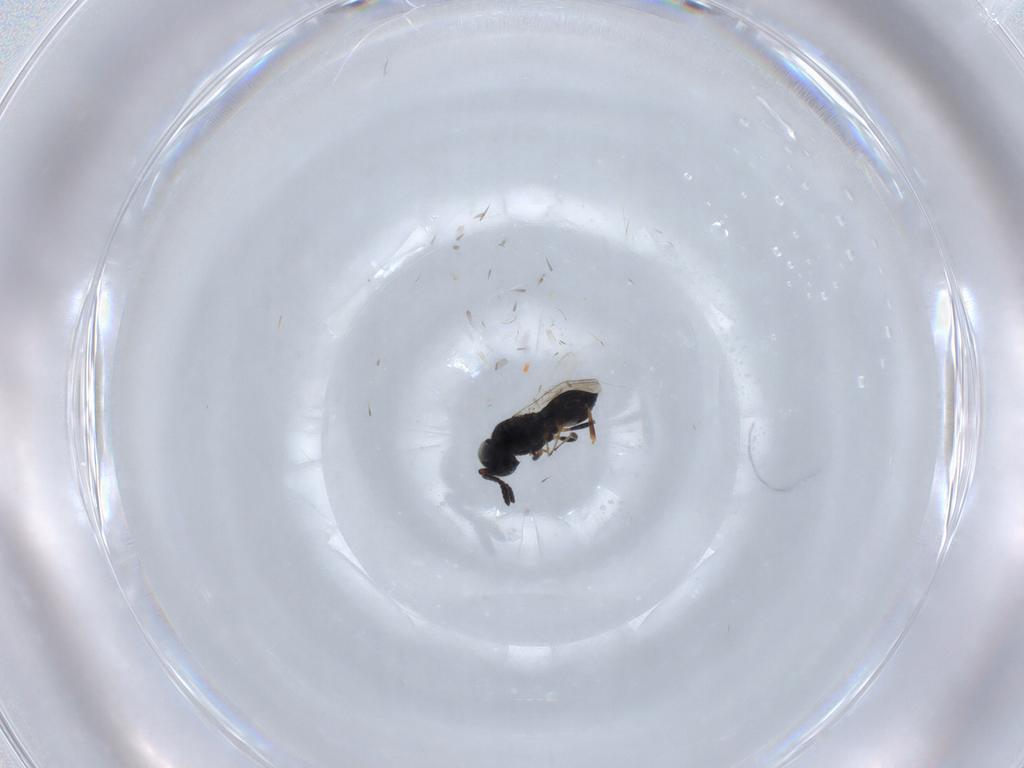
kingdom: Animalia
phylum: Arthropoda
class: Insecta
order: Hymenoptera
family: Scelionidae
